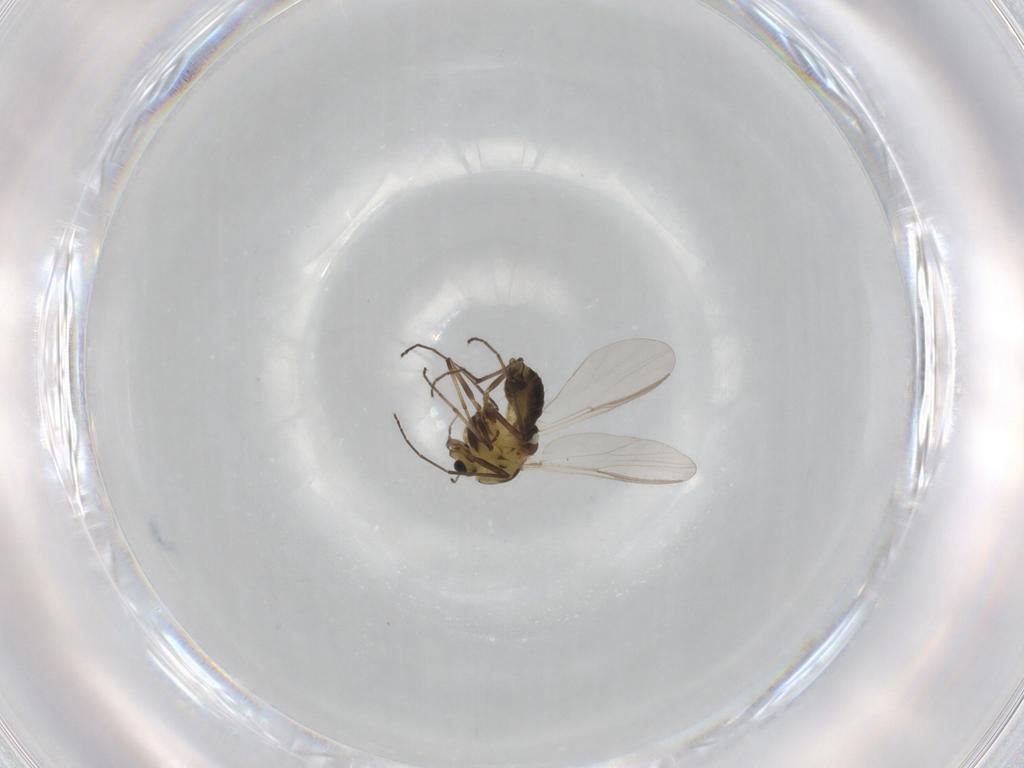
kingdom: Animalia
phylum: Arthropoda
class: Insecta
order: Diptera
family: Chironomidae
